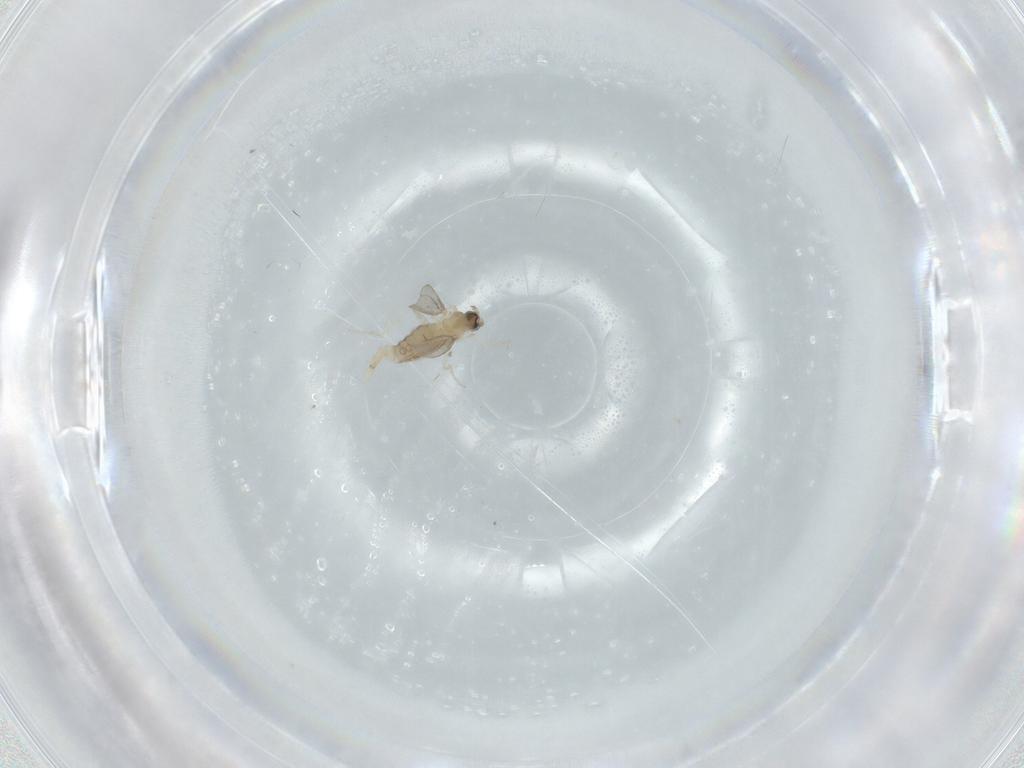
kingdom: Animalia
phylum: Arthropoda
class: Insecta
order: Diptera
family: Cecidomyiidae
